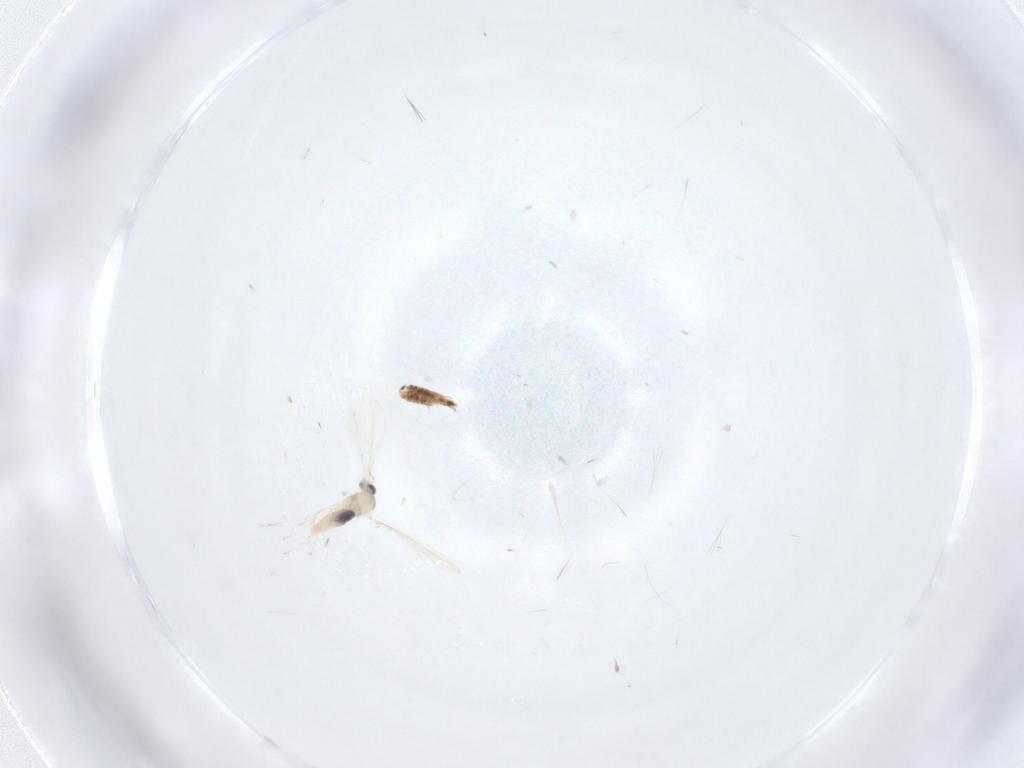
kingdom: Animalia
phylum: Arthropoda
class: Insecta
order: Diptera
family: Cecidomyiidae
